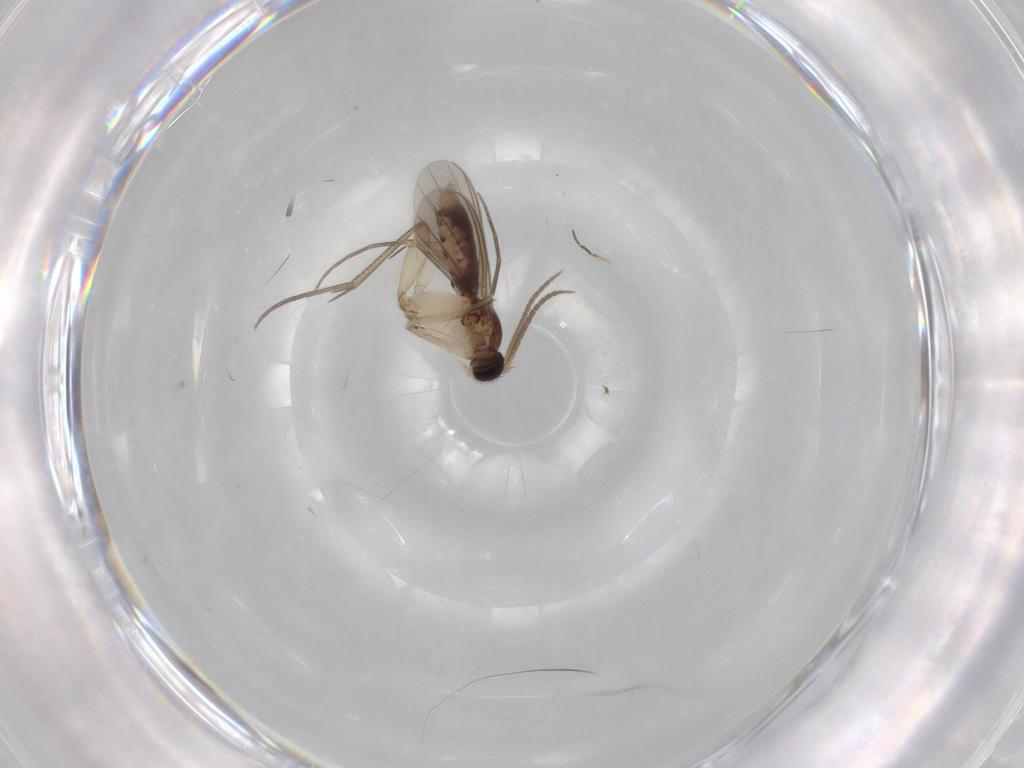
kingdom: Animalia
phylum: Arthropoda
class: Insecta
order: Diptera
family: Mycetophilidae
